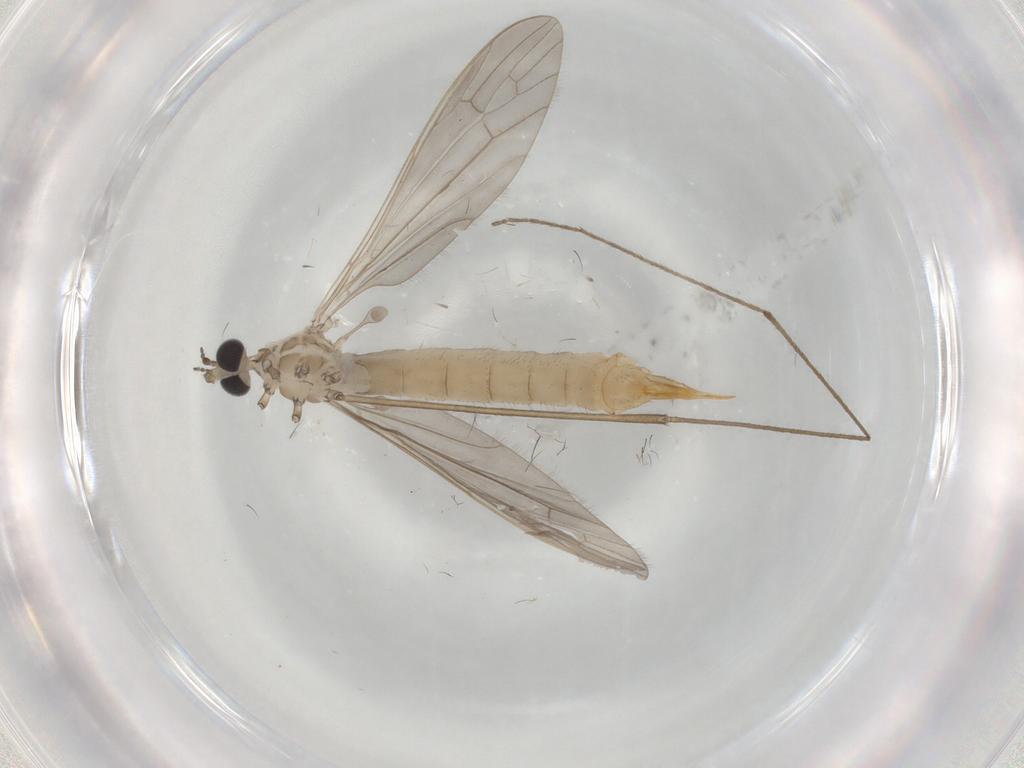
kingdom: Animalia
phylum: Arthropoda
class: Insecta
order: Diptera
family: Limoniidae
